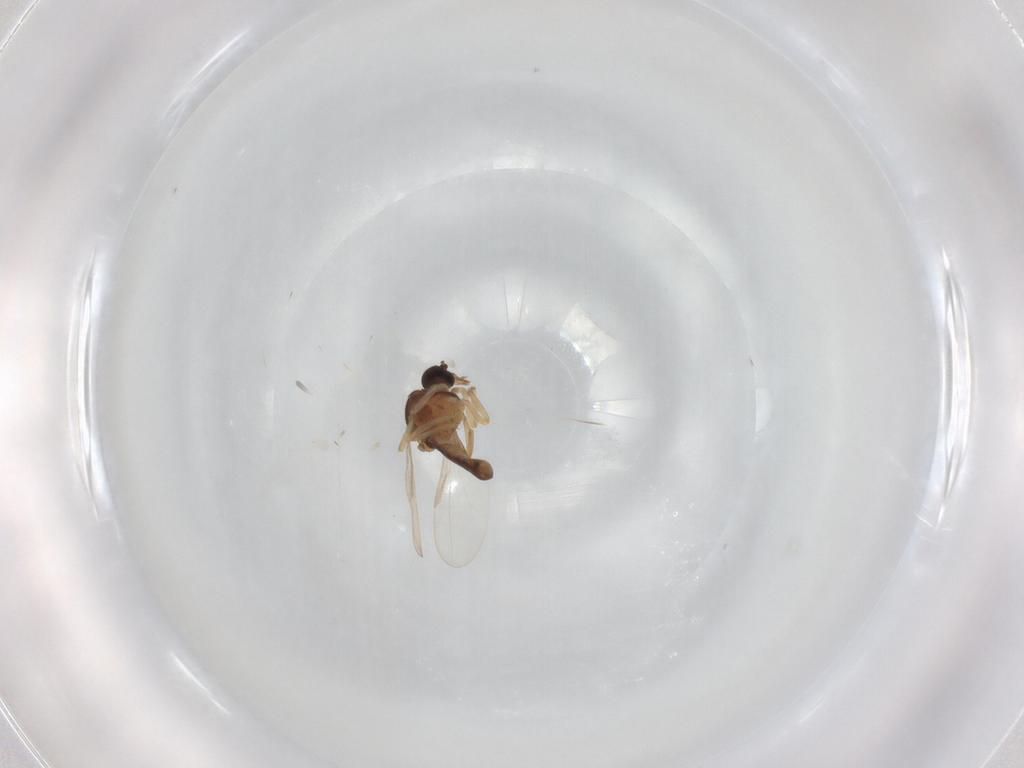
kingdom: Animalia
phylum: Arthropoda
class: Insecta
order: Diptera
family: Ceratopogonidae
